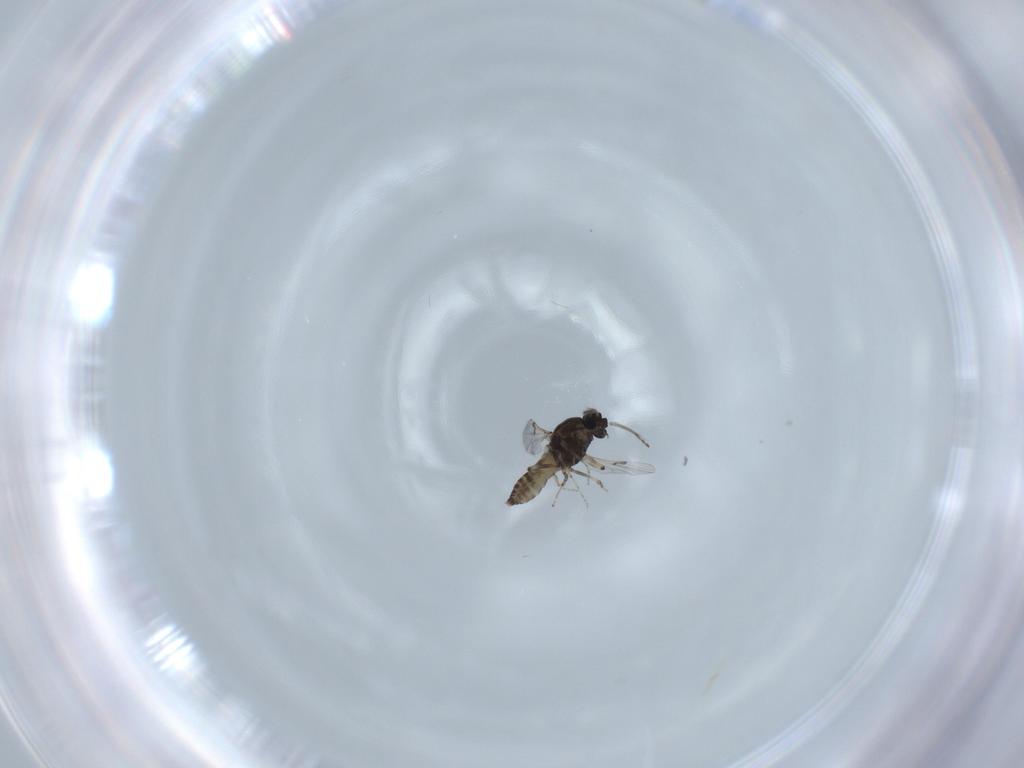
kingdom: Animalia
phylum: Arthropoda
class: Insecta
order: Diptera
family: Ceratopogonidae
